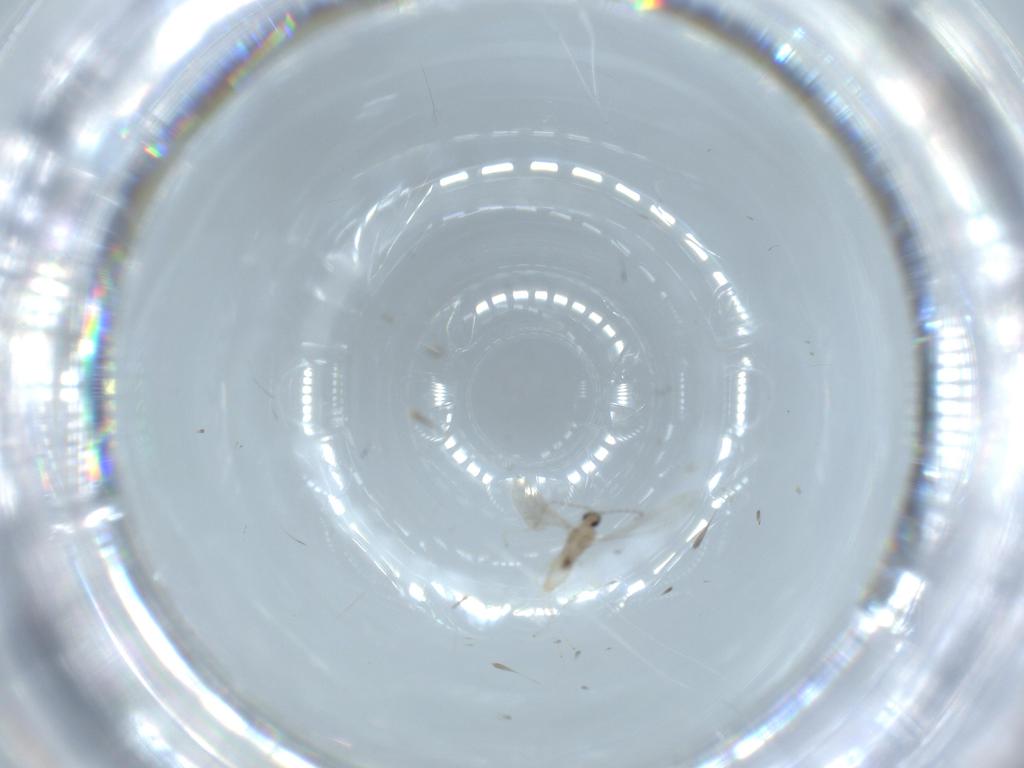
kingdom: Animalia
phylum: Arthropoda
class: Insecta
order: Diptera
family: Cecidomyiidae
